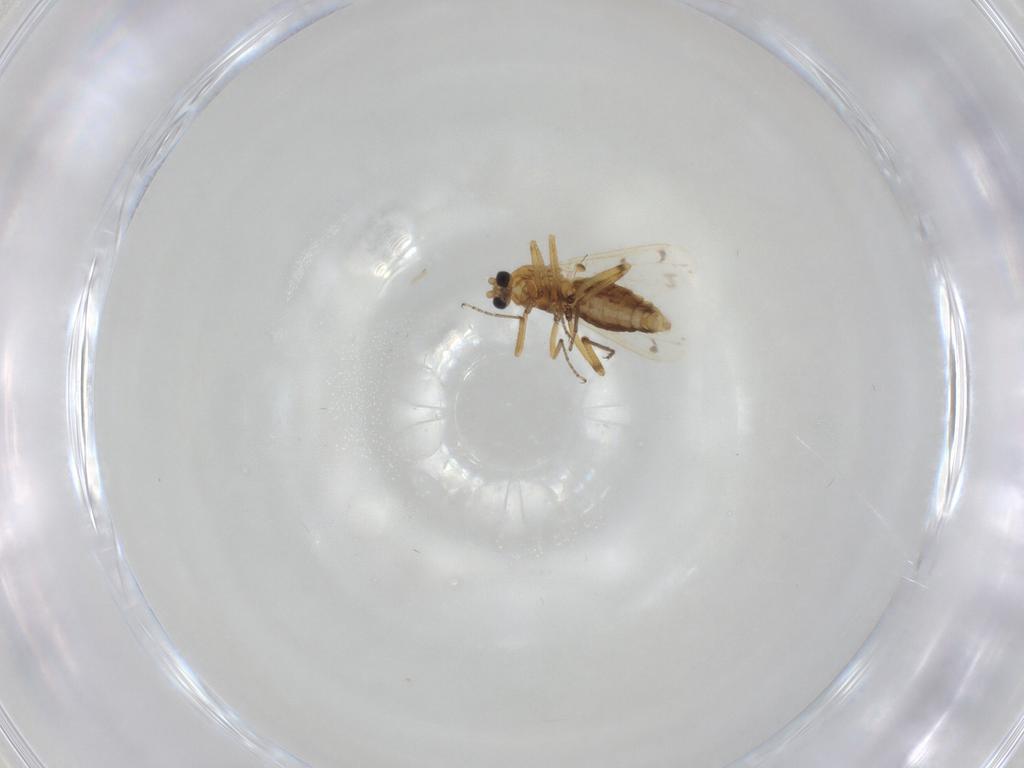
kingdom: Animalia
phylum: Arthropoda
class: Insecta
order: Diptera
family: Ceratopogonidae
